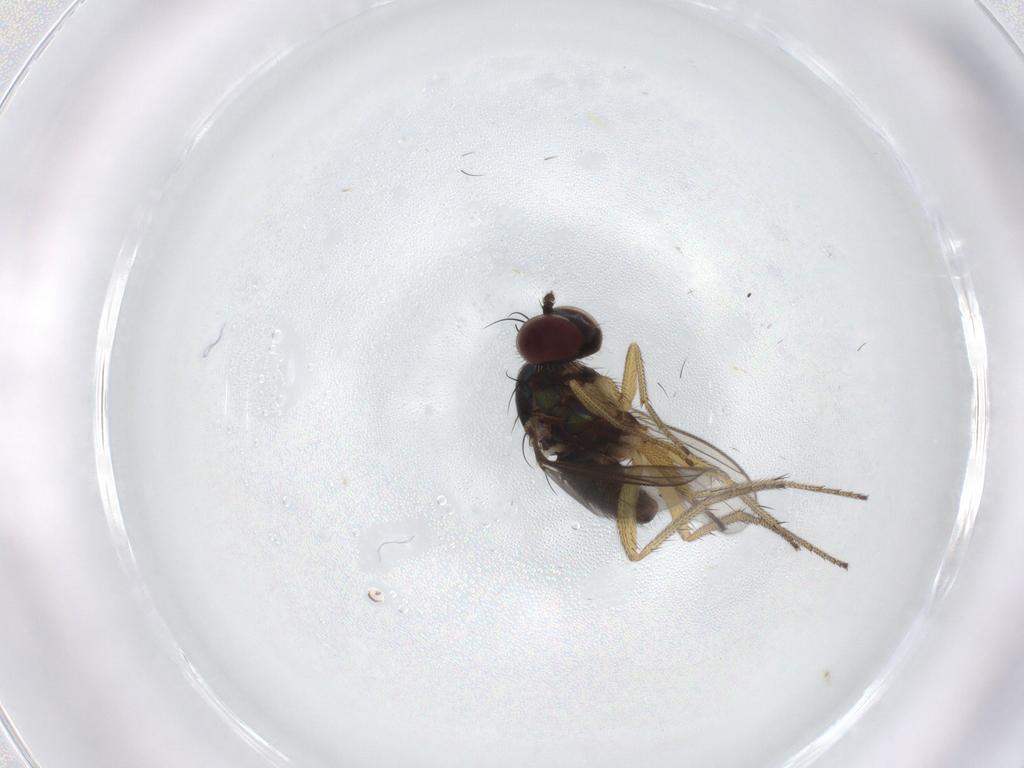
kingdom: Animalia
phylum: Arthropoda
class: Insecta
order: Diptera
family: Dolichopodidae
